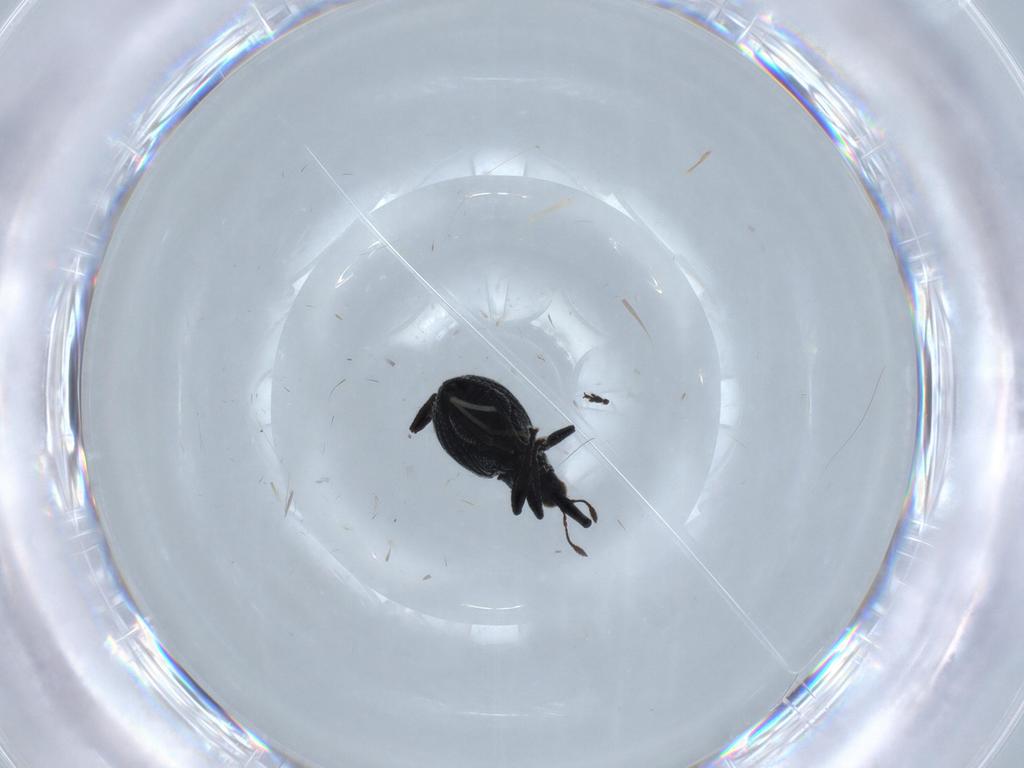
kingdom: Animalia
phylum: Arthropoda
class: Insecta
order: Coleoptera
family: Brentidae
